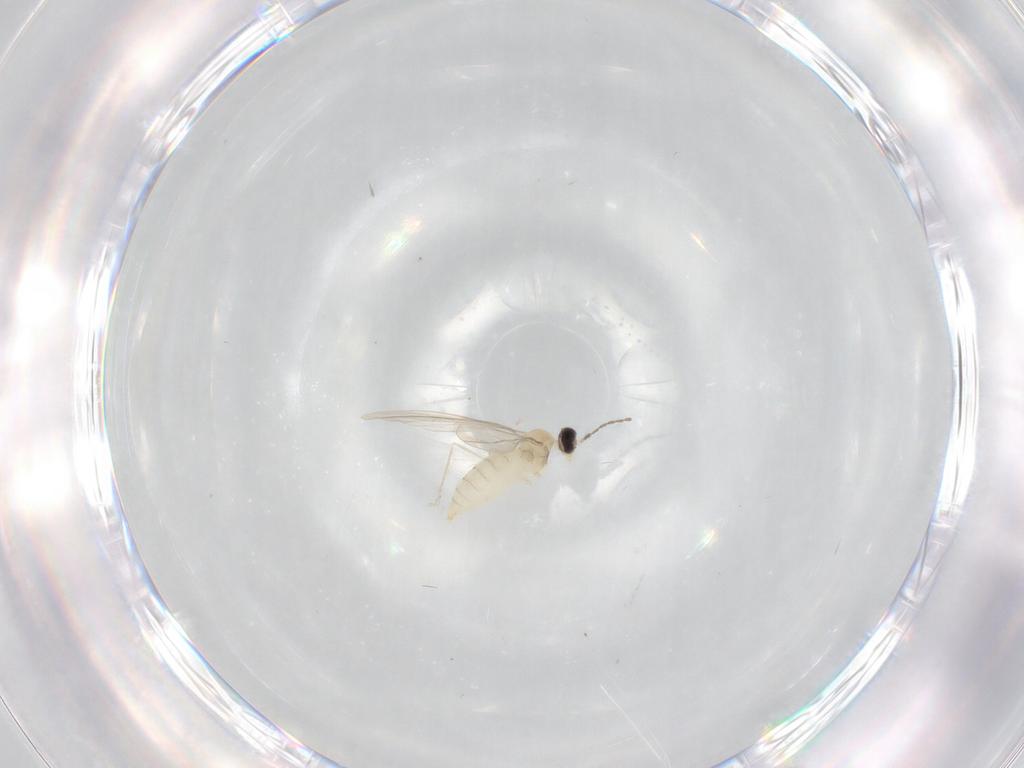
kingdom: Animalia
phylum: Arthropoda
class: Insecta
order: Diptera
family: Cecidomyiidae
